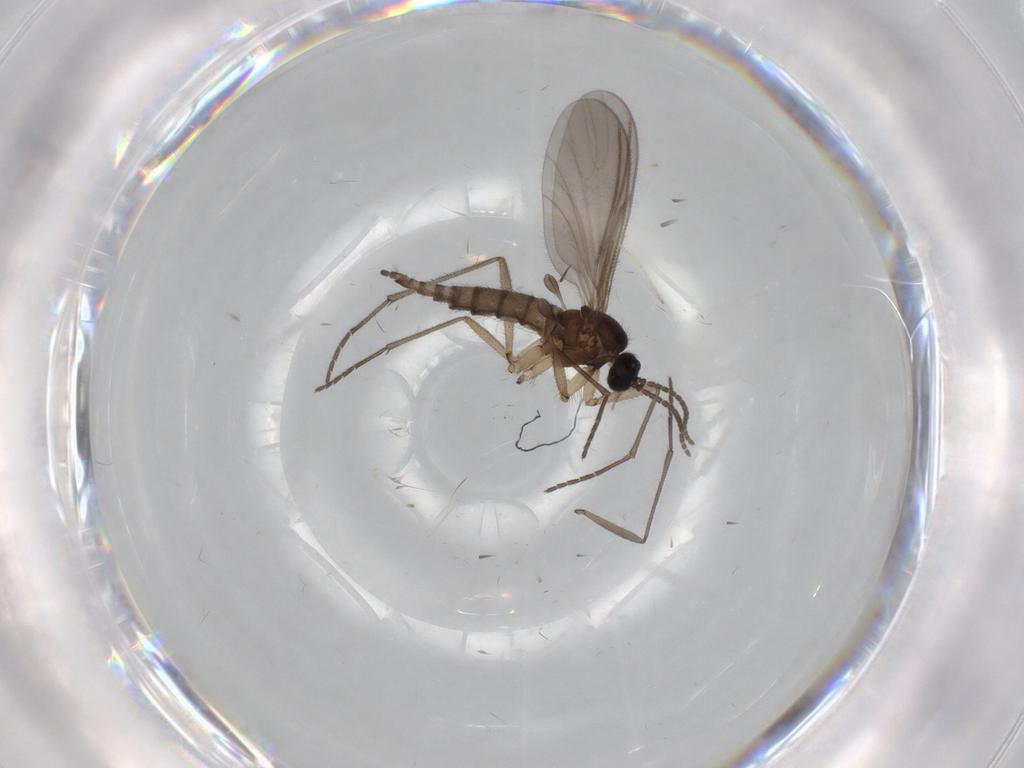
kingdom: Animalia
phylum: Arthropoda
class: Insecta
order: Diptera
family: Sciaridae
